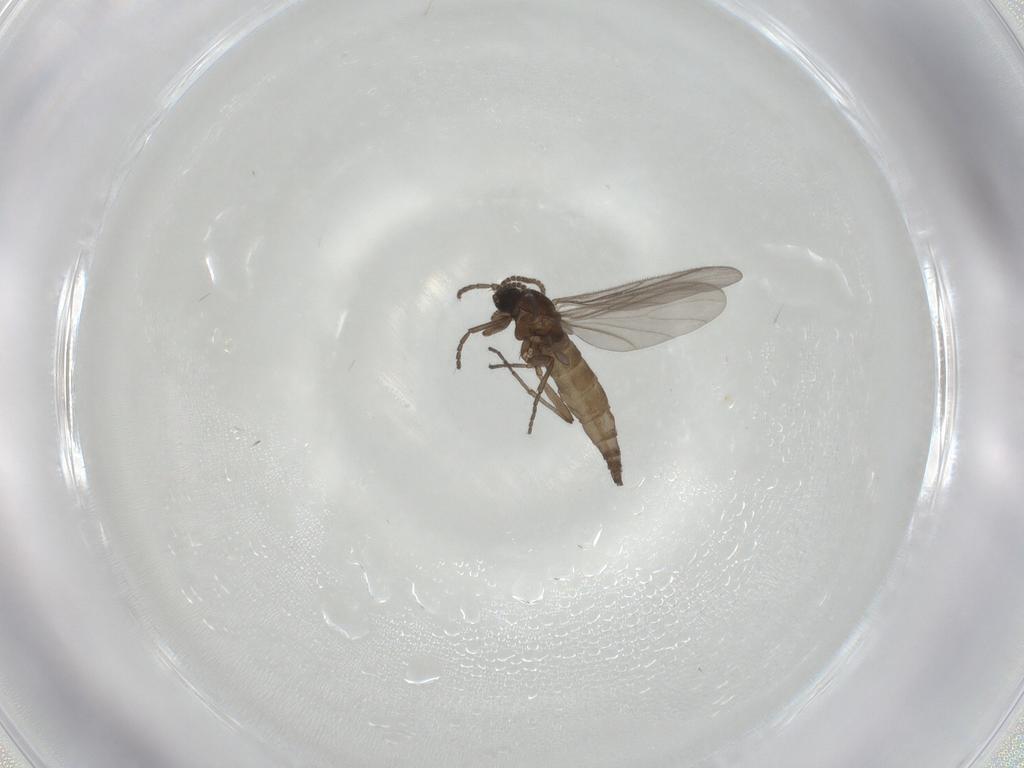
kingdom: Animalia
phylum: Arthropoda
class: Insecta
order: Diptera
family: Sciaridae
